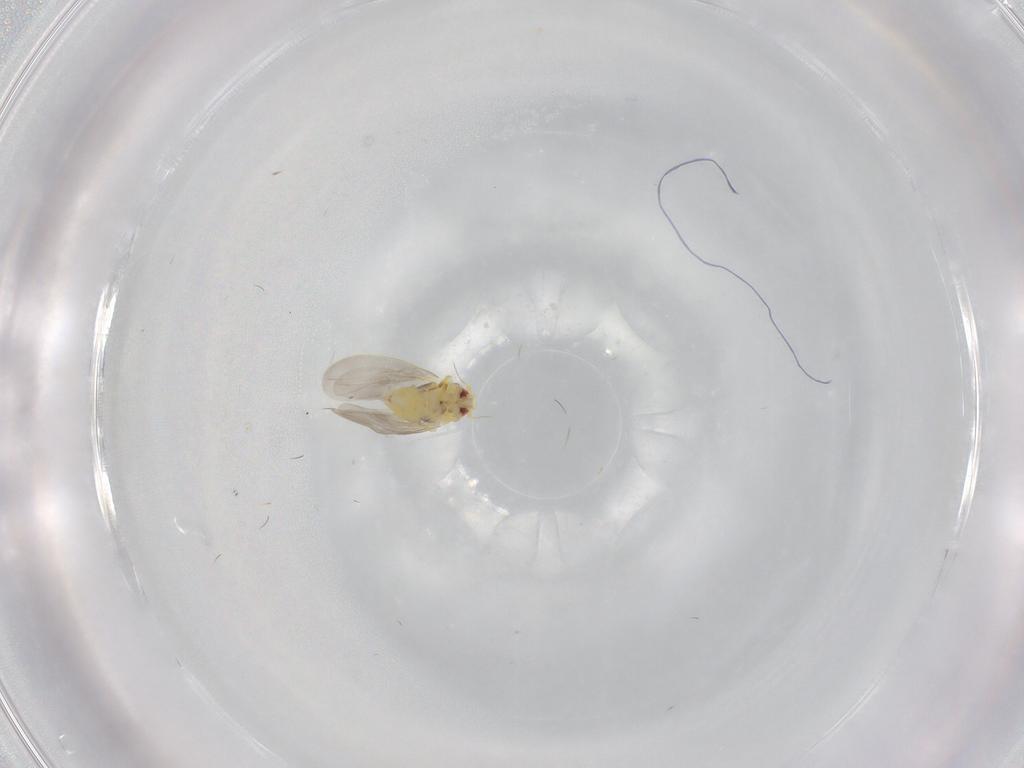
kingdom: Animalia
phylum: Arthropoda
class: Insecta
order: Hemiptera
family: Aleyrodidae
